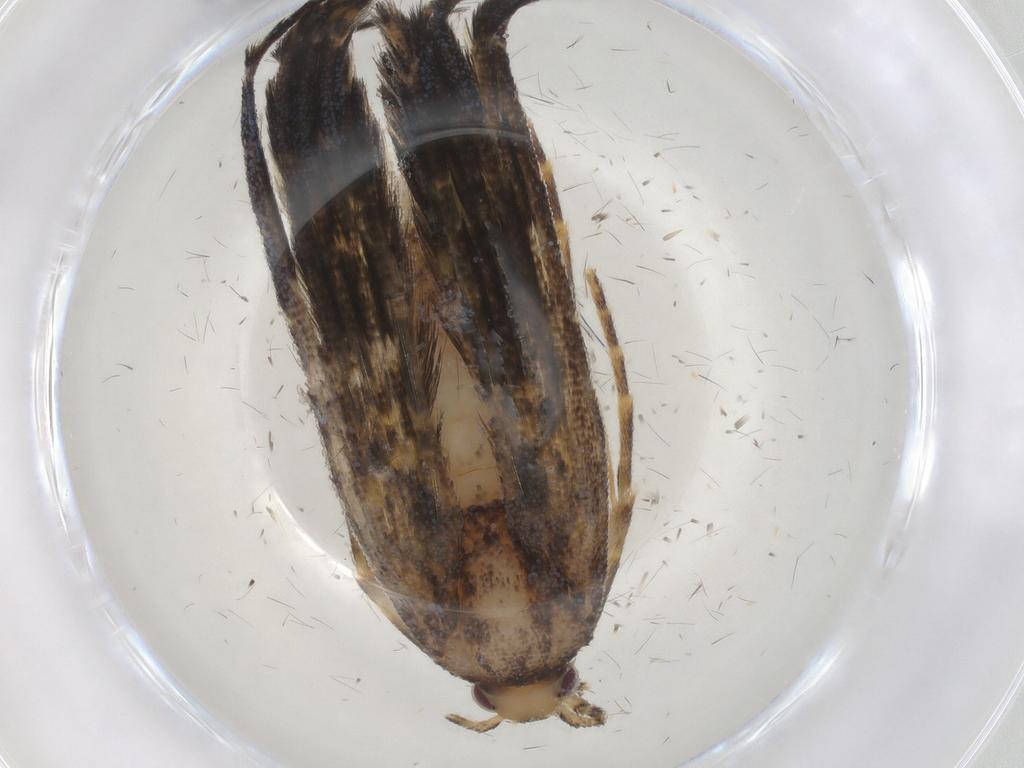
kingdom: Animalia
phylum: Arthropoda
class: Insecta
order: Lepidoptera
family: Erebidae
